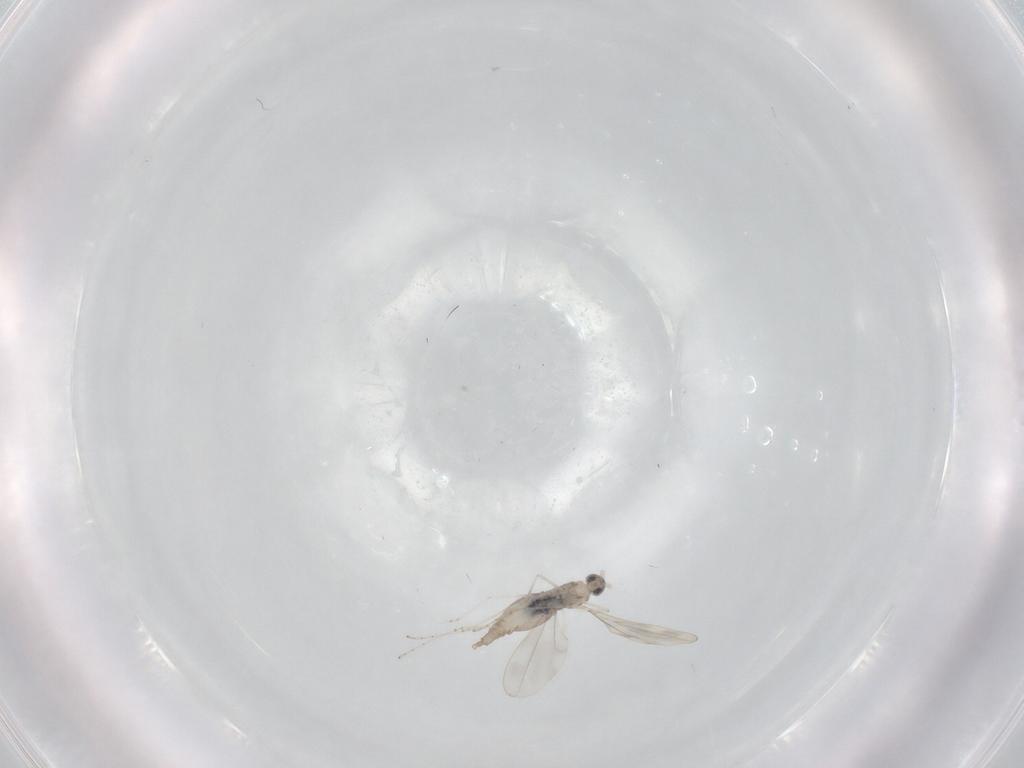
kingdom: Animalia
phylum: Arthropoda
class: Insecta
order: Diptera
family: Cecidomyiidae
